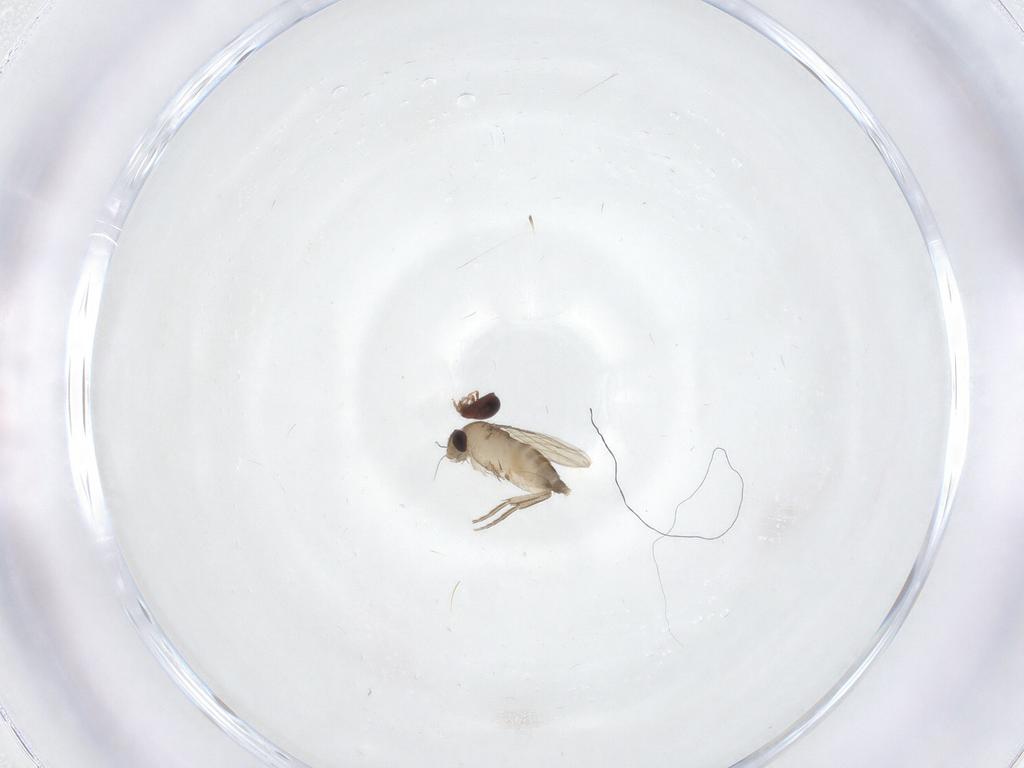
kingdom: Animalia
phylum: Arthropoda
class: Insecta
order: Diptera
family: Phoridae
